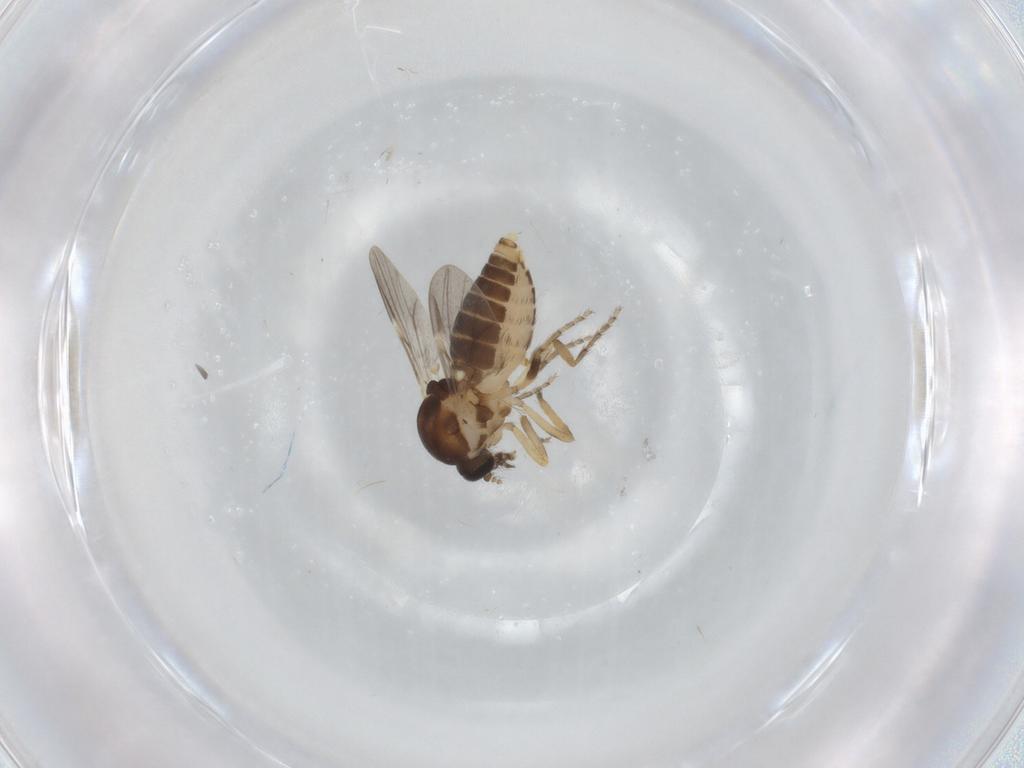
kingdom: Animalia
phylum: Arthropoda
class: Insecta
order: Diptera
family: Ceratopogonidae
